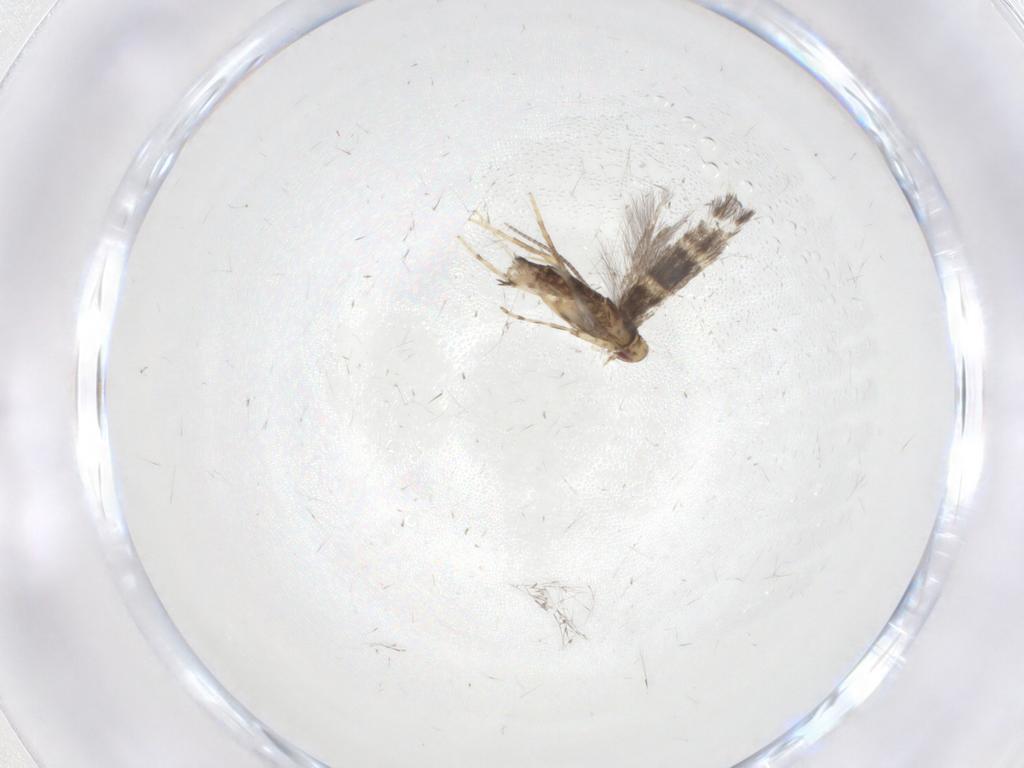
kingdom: Animalia
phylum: Arthropoda
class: Insecta
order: Lepidoptera
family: Gracillariidae
